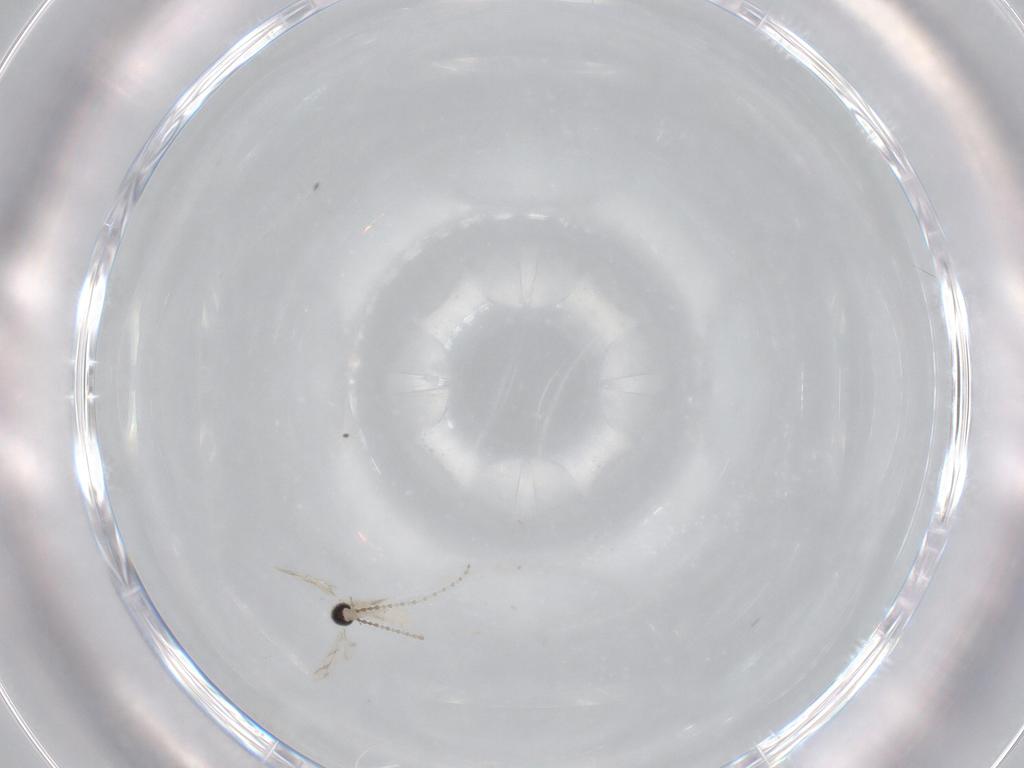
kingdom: Animalia
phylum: Arthropoda
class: Insecta
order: Diptera
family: Cecidomyiidae
